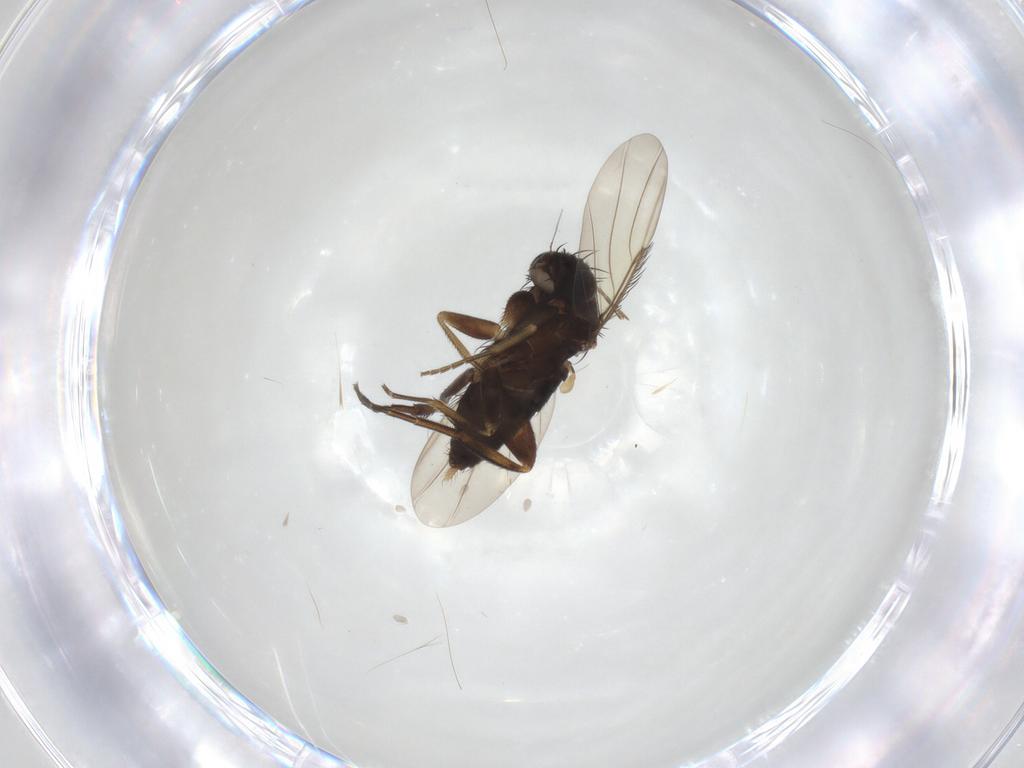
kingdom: Animalia
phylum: Arthropoda
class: Insecta
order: Diptera
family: Phoridae
